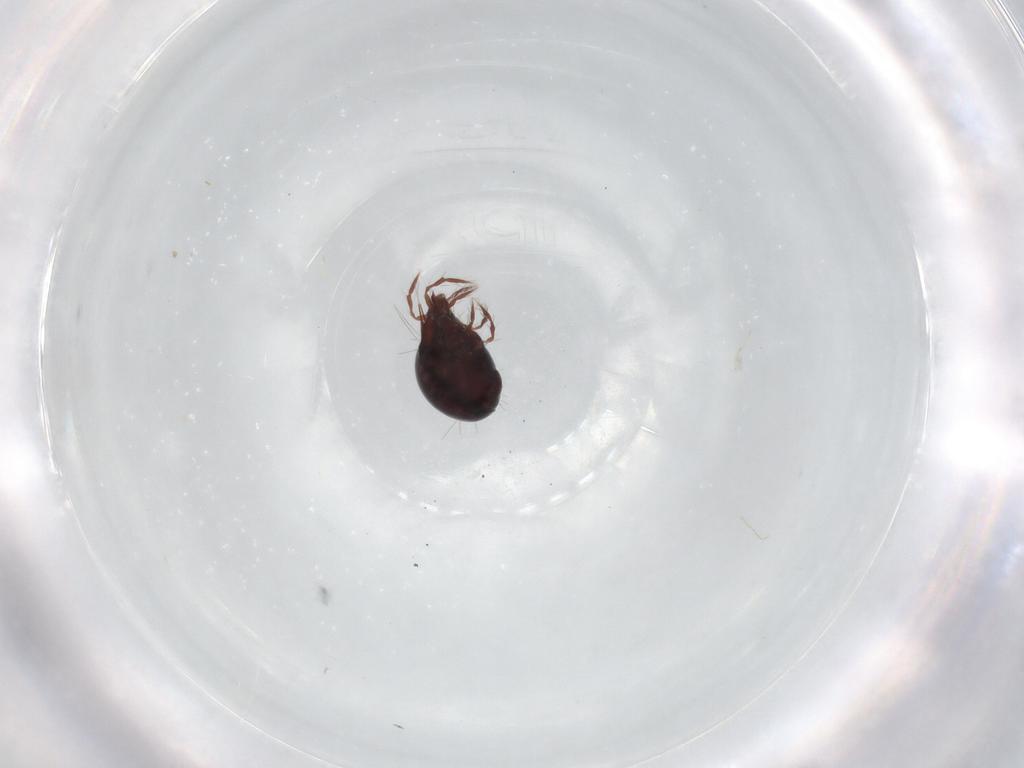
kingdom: Animalia
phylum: Arthropoda
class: Arachnida
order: Sarcoptiformes
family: Ceratoppiidae
